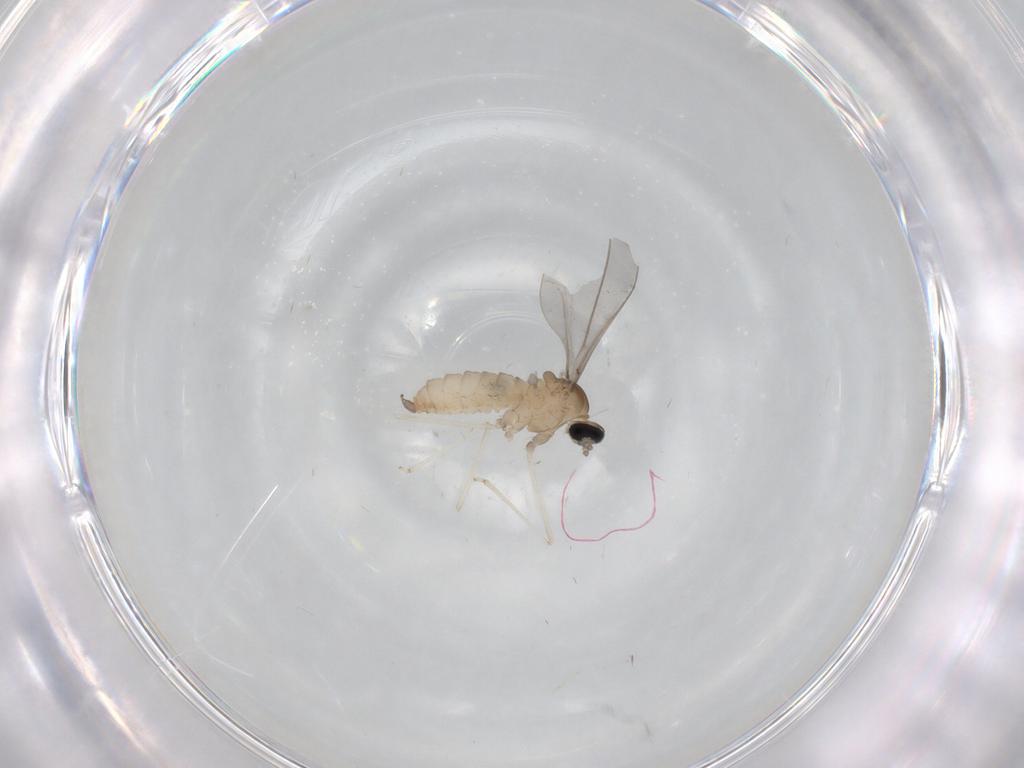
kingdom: Animalia
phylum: Arthropoda
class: Insecta
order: Diptera
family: Cecidomyiidae
